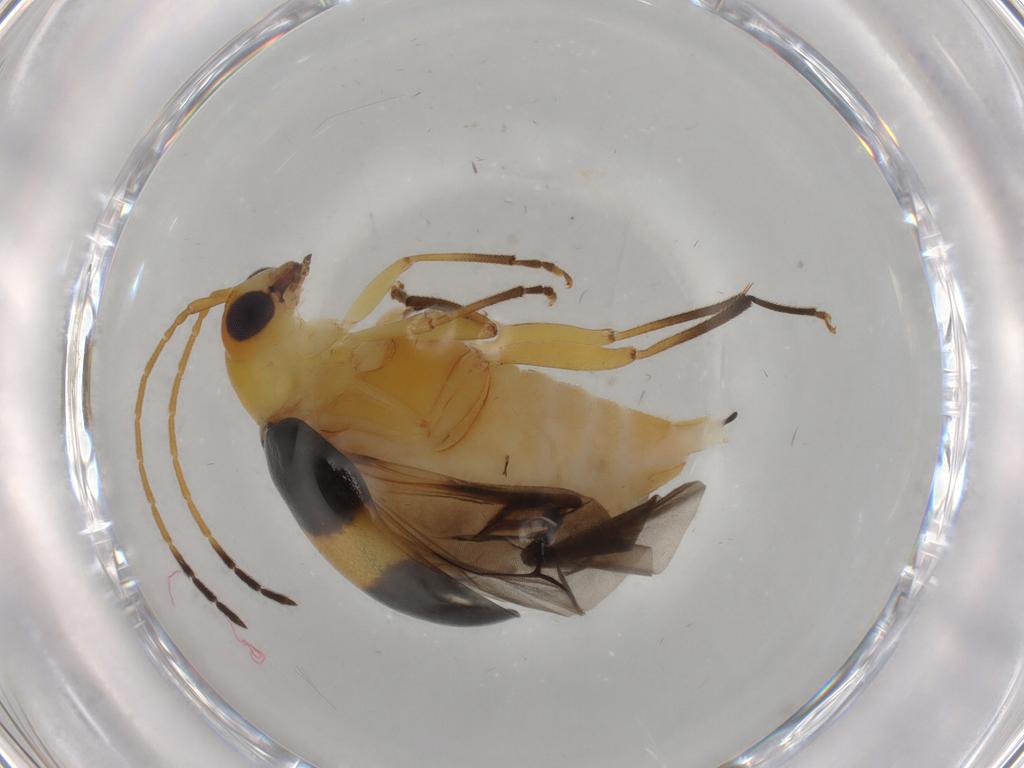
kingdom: Animalia
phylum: Arthropoda
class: Insecta
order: Coleoptera
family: Chrysomelidae
